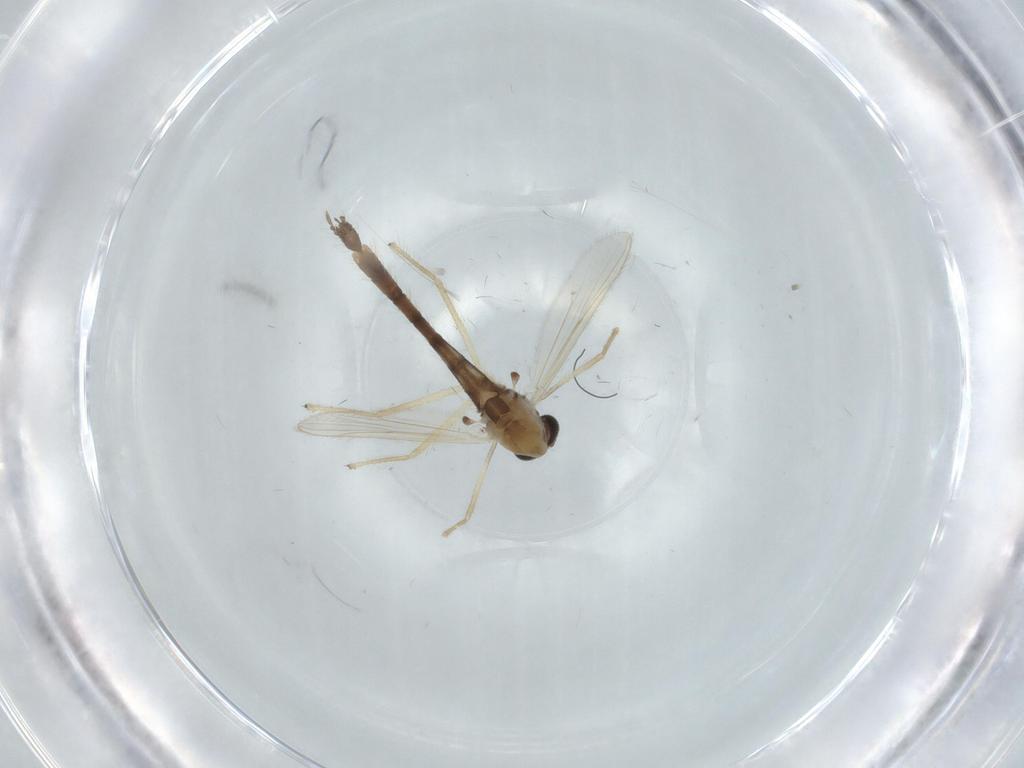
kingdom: Animalia
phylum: Arthropoda
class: Insecta
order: Diptera
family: Chironomidae
